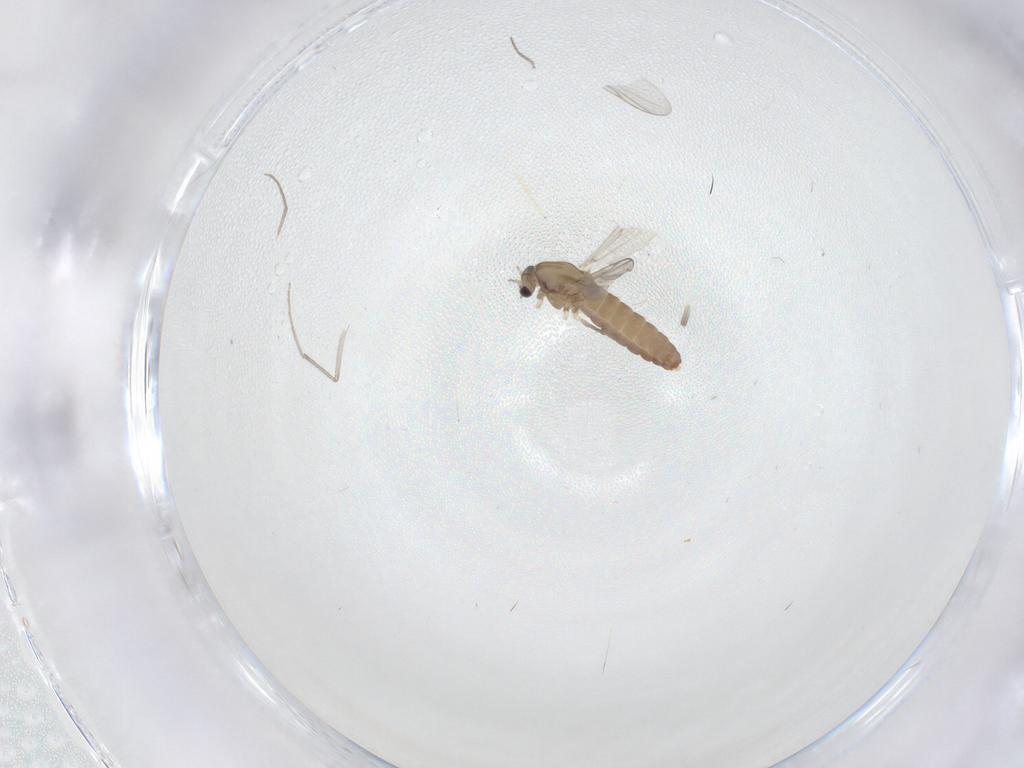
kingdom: Animalia
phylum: Arthropoda
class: Insecta
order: Diptera
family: Chironomidae
